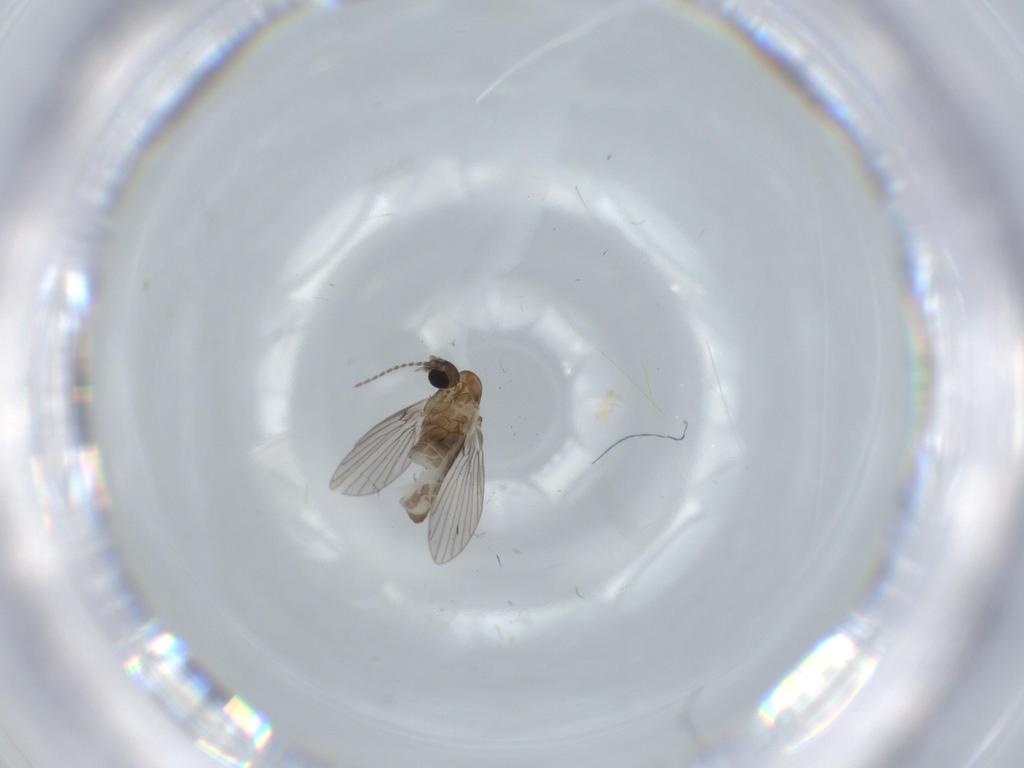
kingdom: Animalia
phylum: Arthropoda
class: Insecta
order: Diptera
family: Psychodidae
